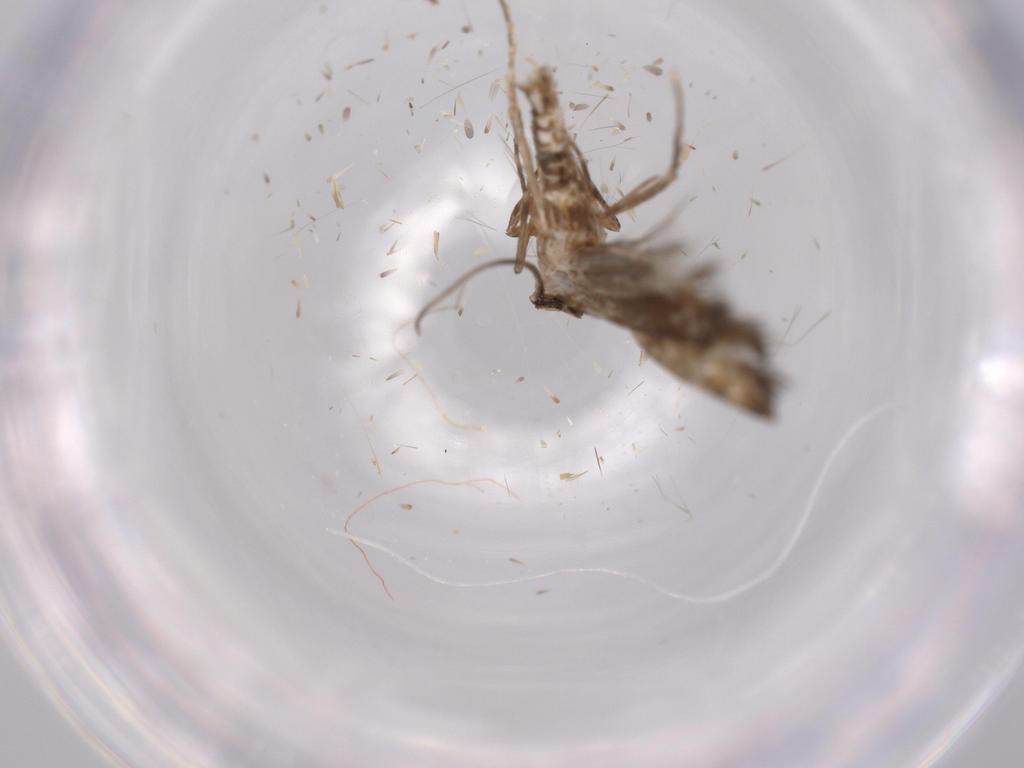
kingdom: Animalia
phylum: Arthropoda
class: Insecta
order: Lepidoptera
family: Tineidae
